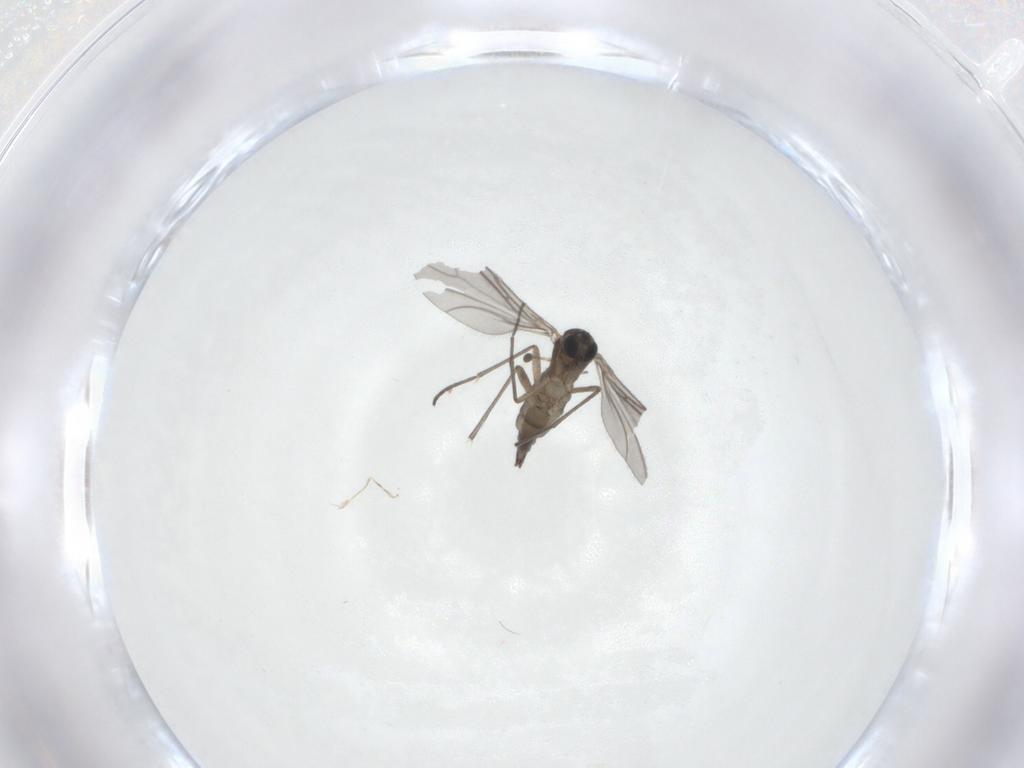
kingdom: Animalia
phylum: Arthropoda
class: Insecta
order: Diptera
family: Sciaridae
